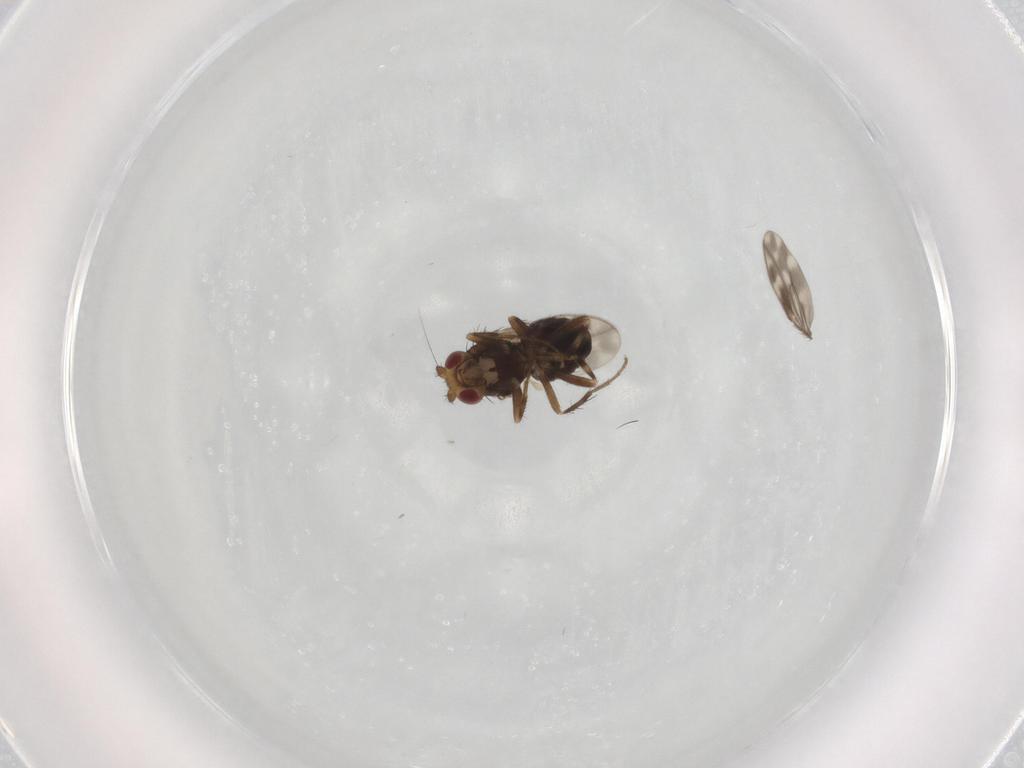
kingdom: Animalia
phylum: Arthropoda
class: Insecta
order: Diptera
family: Sphaeroceridae
